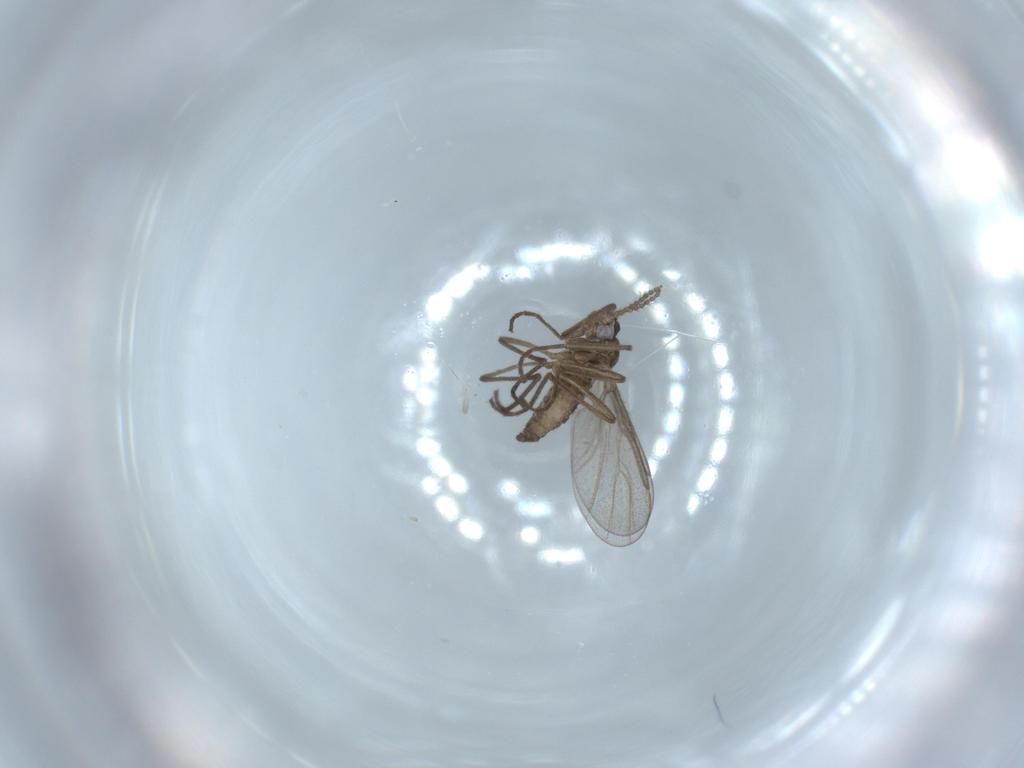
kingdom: Animalia
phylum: Arthropoda
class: Insecta
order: Diptera
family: Cecidomyiidae
